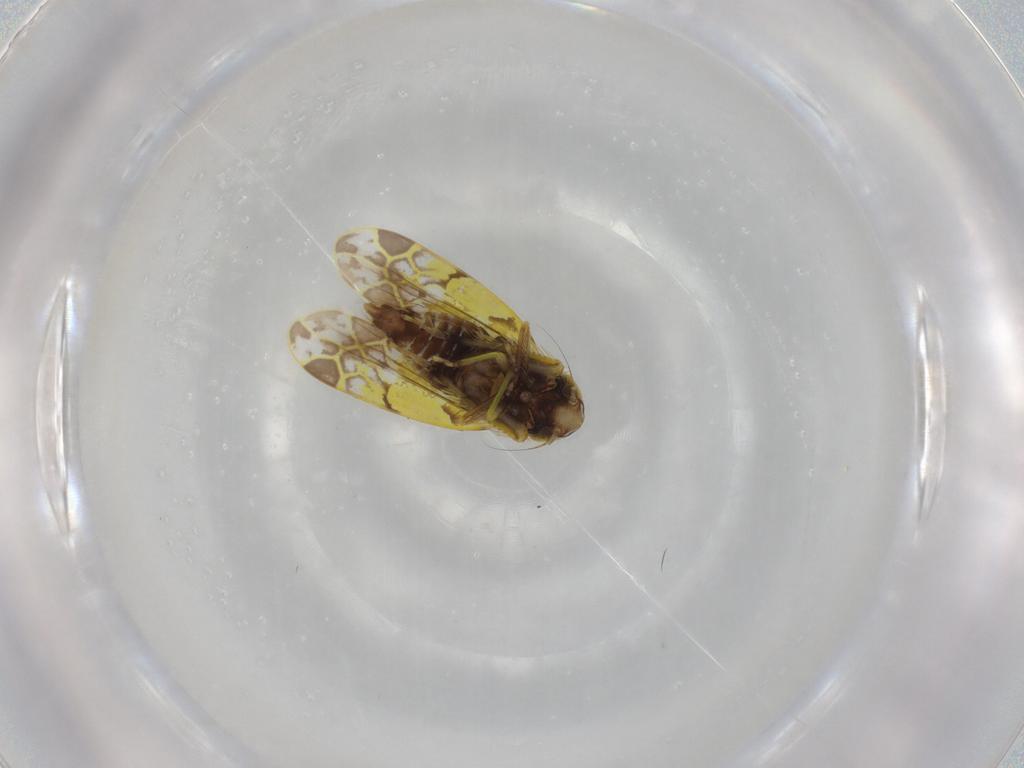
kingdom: Animalia
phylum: Arthropoda
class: Insecta
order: Hemiptera
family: Cicadellidae
